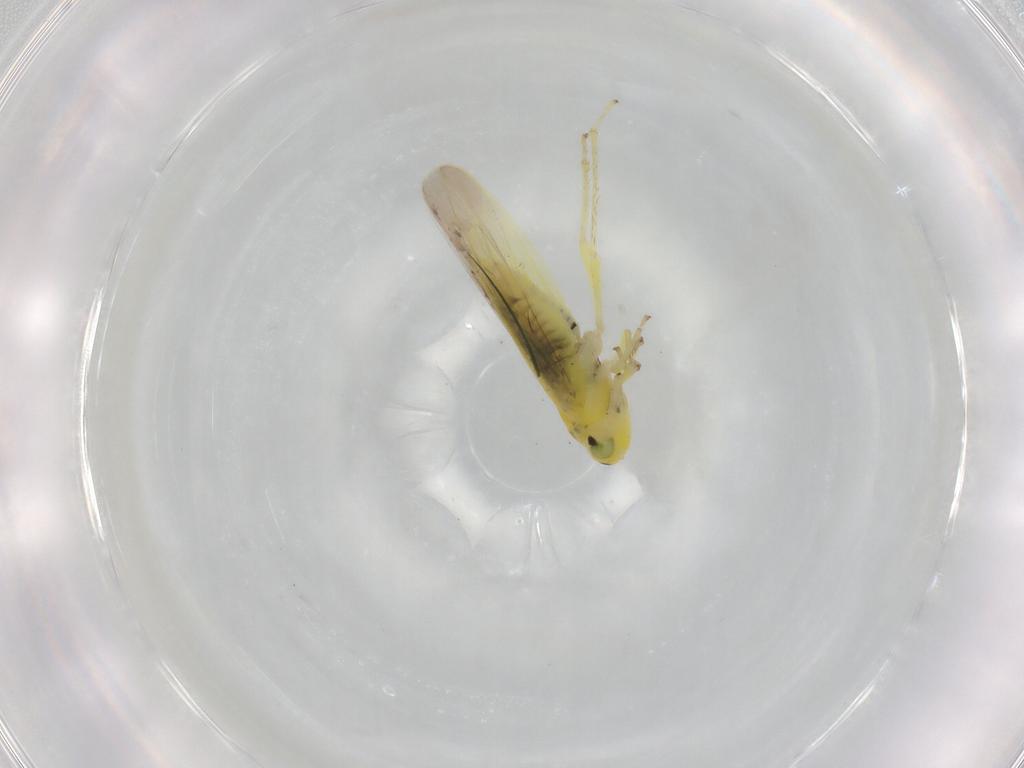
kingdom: Animalia
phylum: Arthropoda
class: Insecta
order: Hemiptera
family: Cicadellidae
